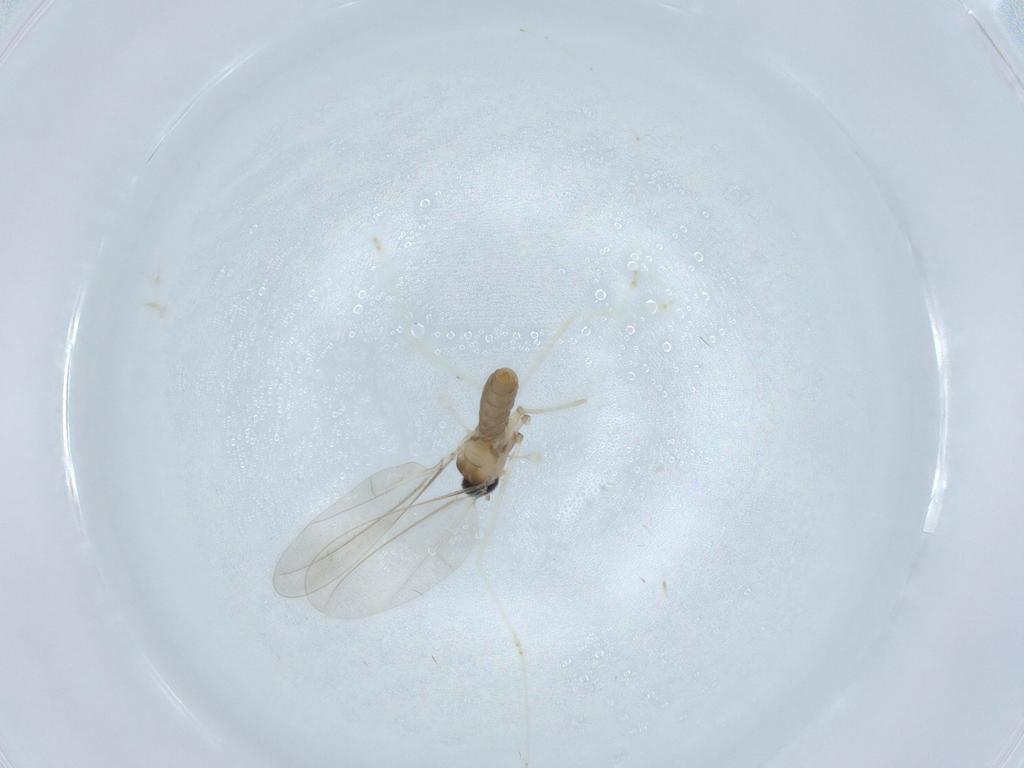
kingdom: Animalia
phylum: Arthropoda
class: Insecta
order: Diptera
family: Cecidomyiidae
